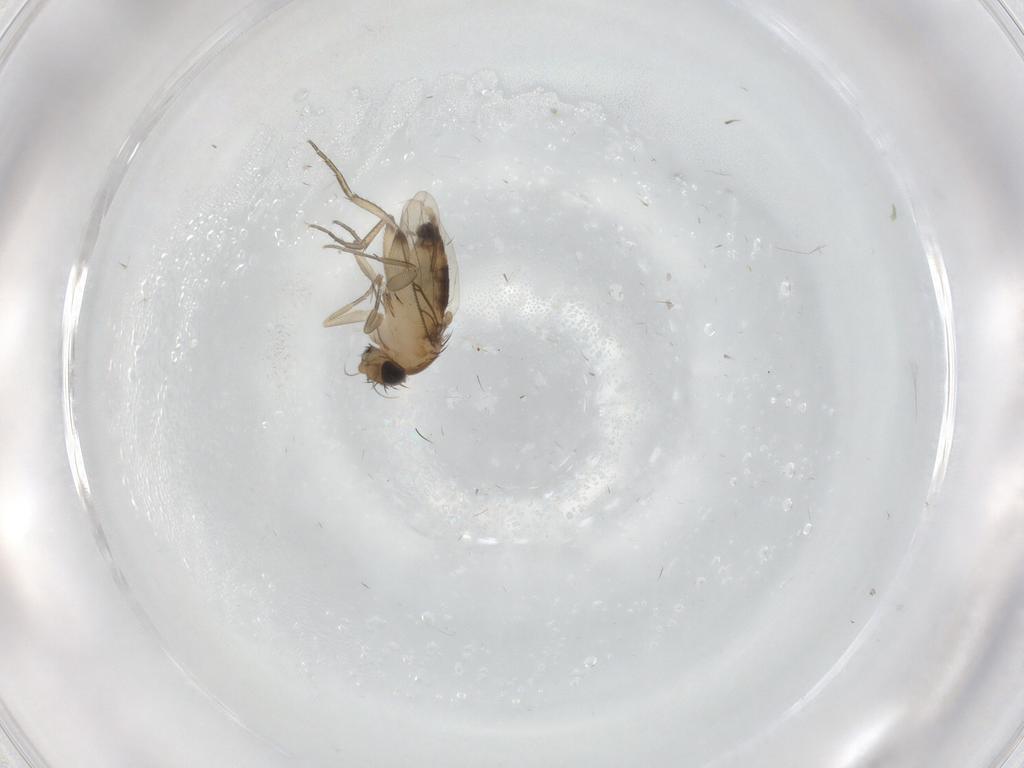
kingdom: Animalia
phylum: Arthropoda
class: Insecta
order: Diptera
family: Phoridae
